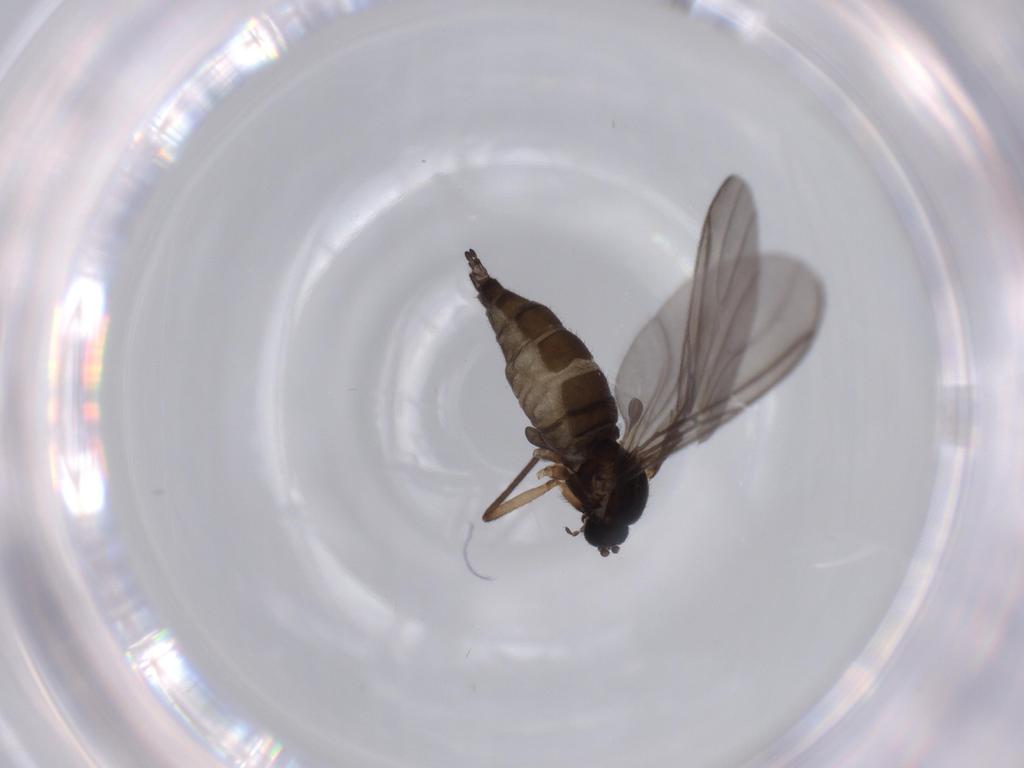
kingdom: Animalia
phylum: Arthropoda
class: Insecta
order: Diptera
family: Sciaridae
